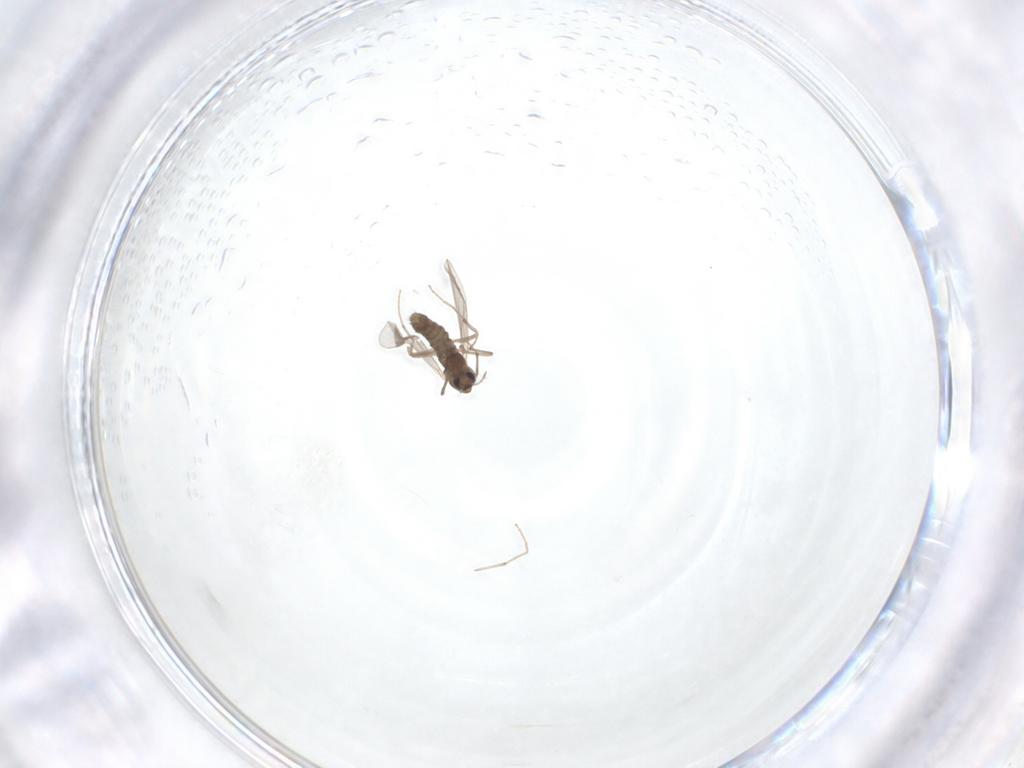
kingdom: Animalia
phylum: Arthropoda
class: Insecta
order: Diptera
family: Chironomidae
